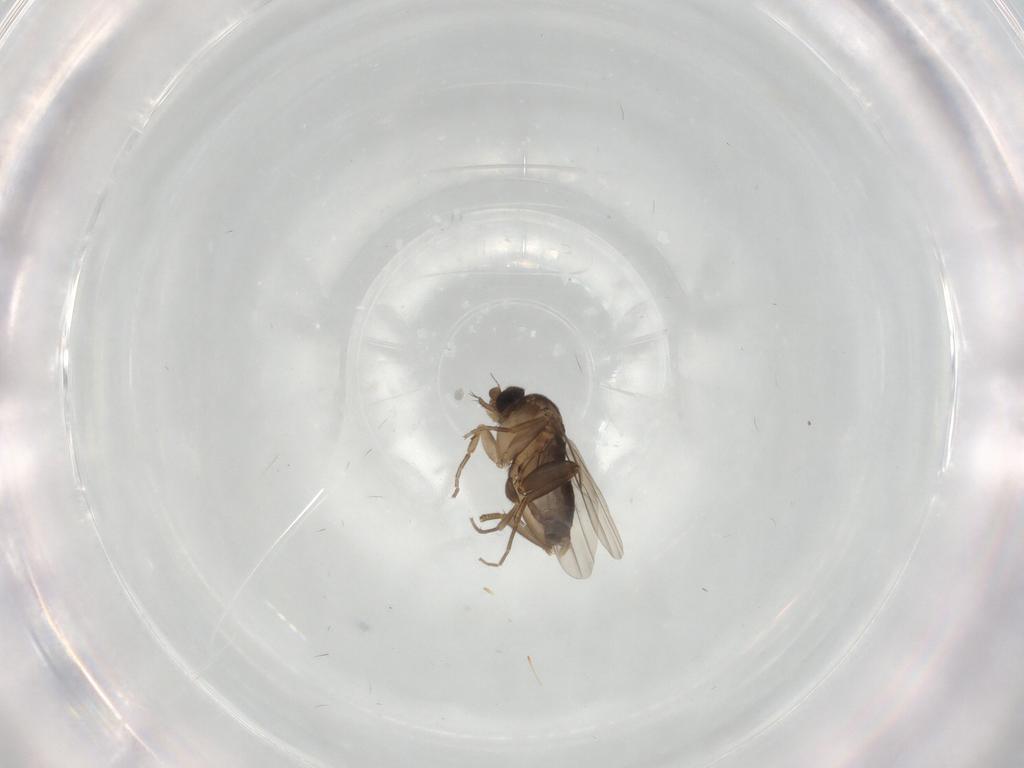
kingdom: Animalia
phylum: Arthropoda
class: Insecta
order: Diptera
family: Phoridae
